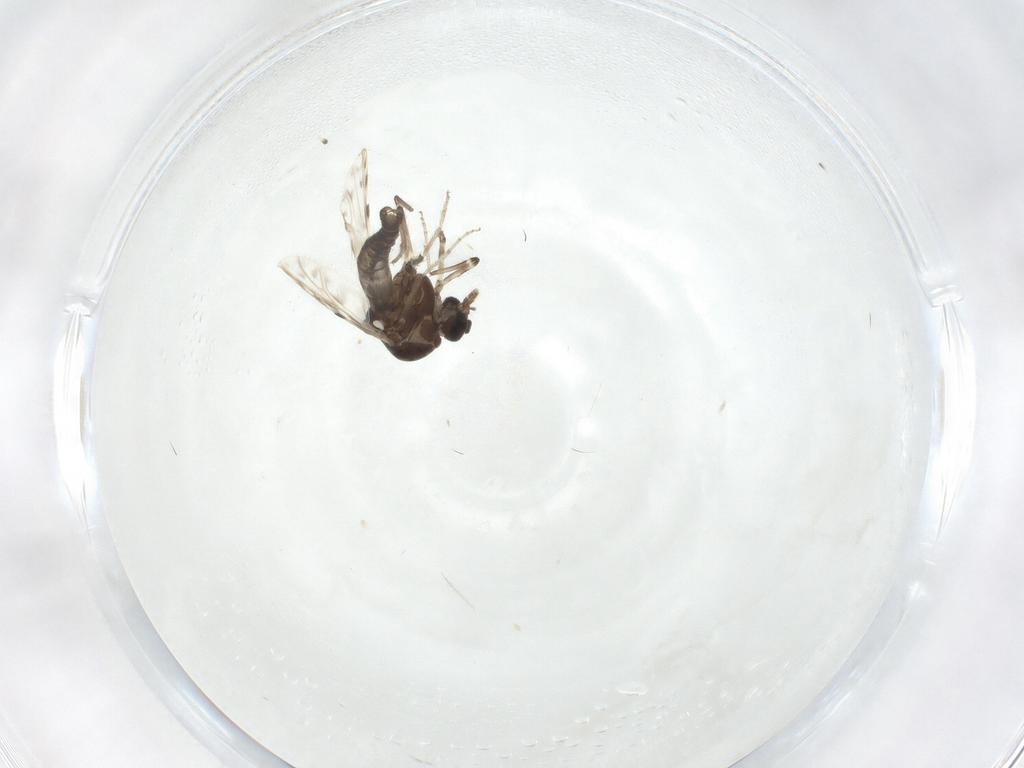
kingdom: Animalia
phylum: Arthropoda
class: Insecta
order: Diptera
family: Ceratopogonidae
